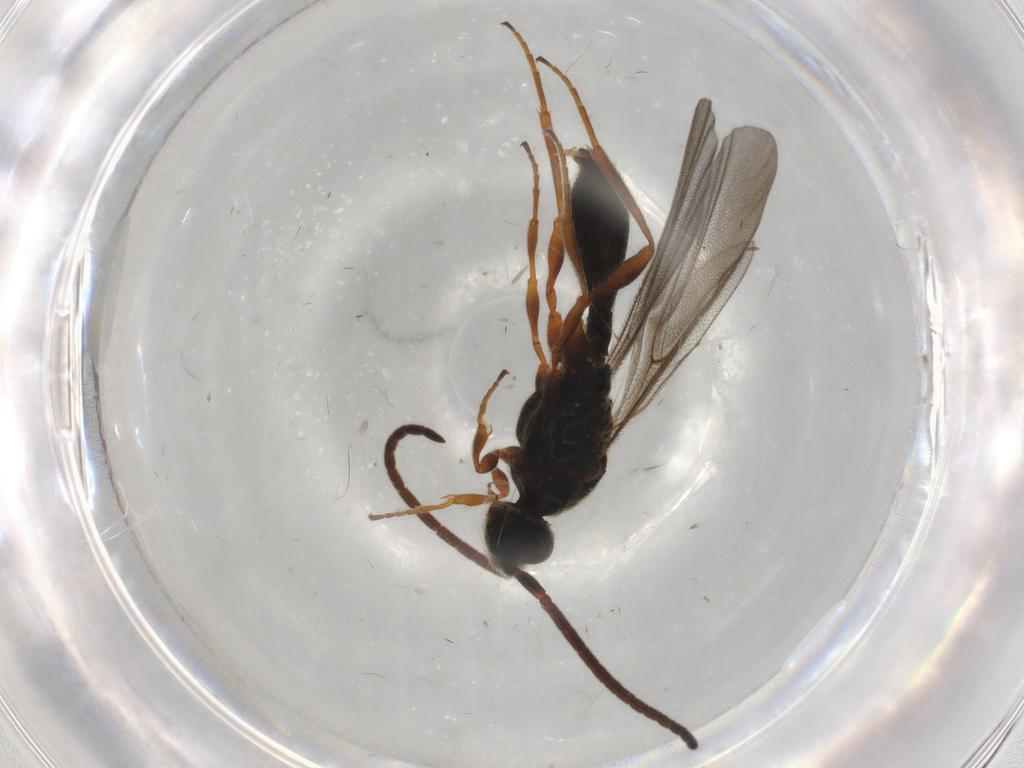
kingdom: Animalia
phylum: Arthropoda
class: Insecta
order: Hymenoptera
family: Diapriidae
